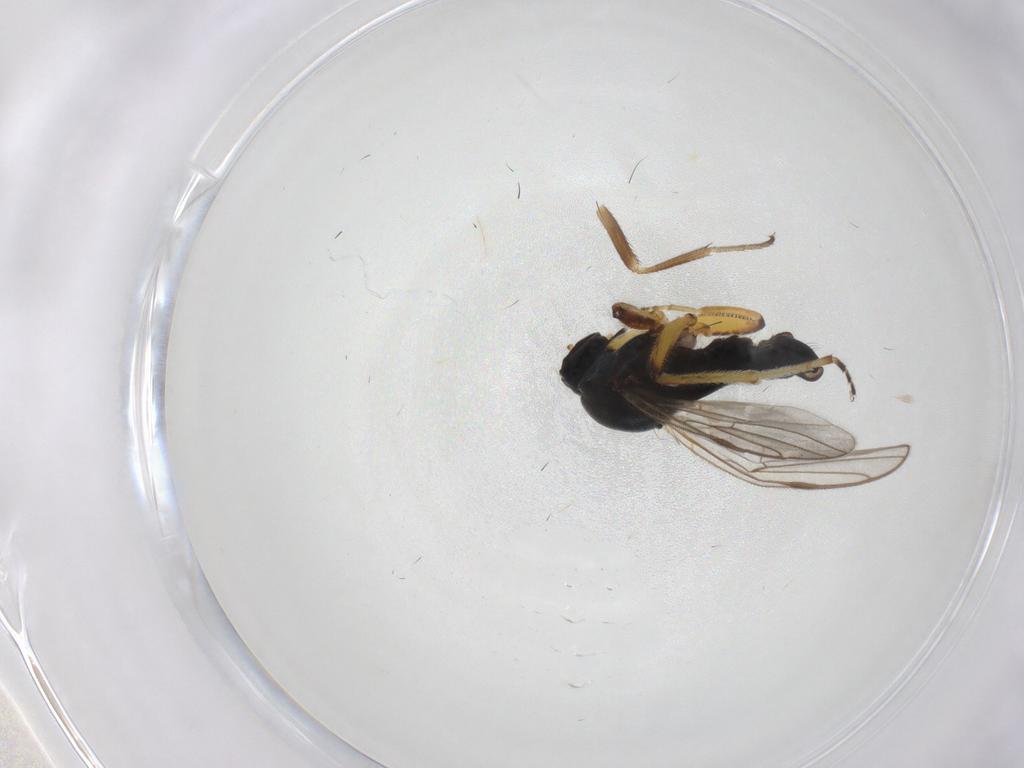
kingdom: Animalia
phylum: Arthropoda
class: Insecta
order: Diptera
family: Hybotidae
